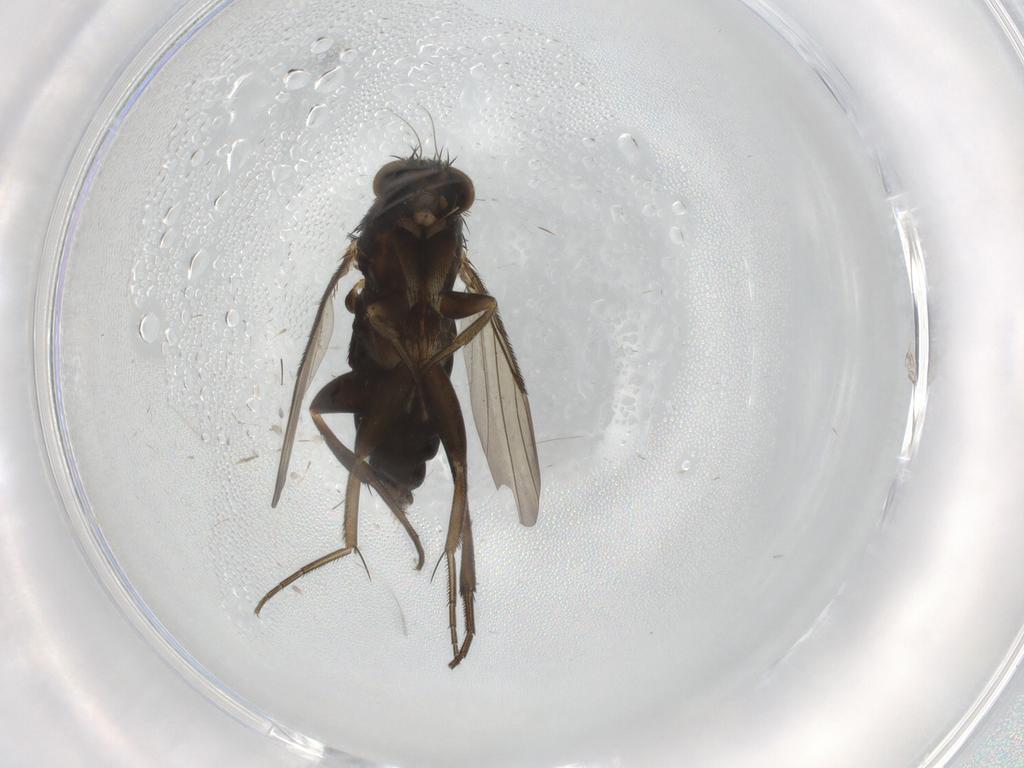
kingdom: Animalia
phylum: Arthropoda
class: Insecta
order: Diptera
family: Phoridae
